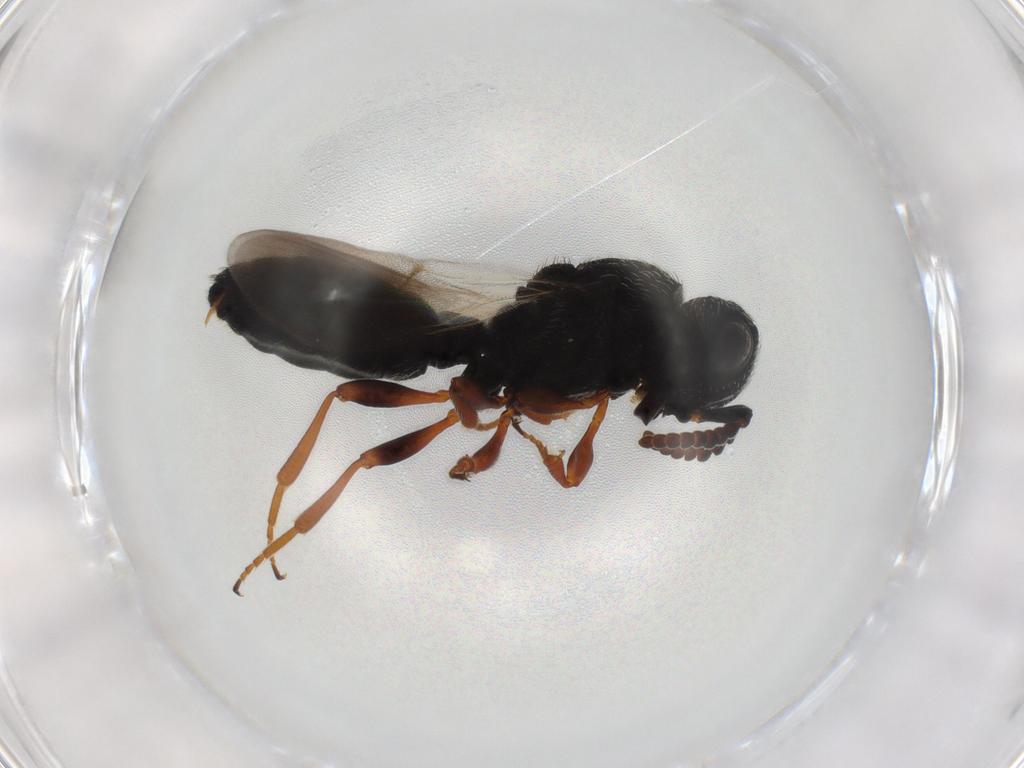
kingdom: Animalia
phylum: Arthropoda
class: Insecta
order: Hymenoptera
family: Scelionidae
